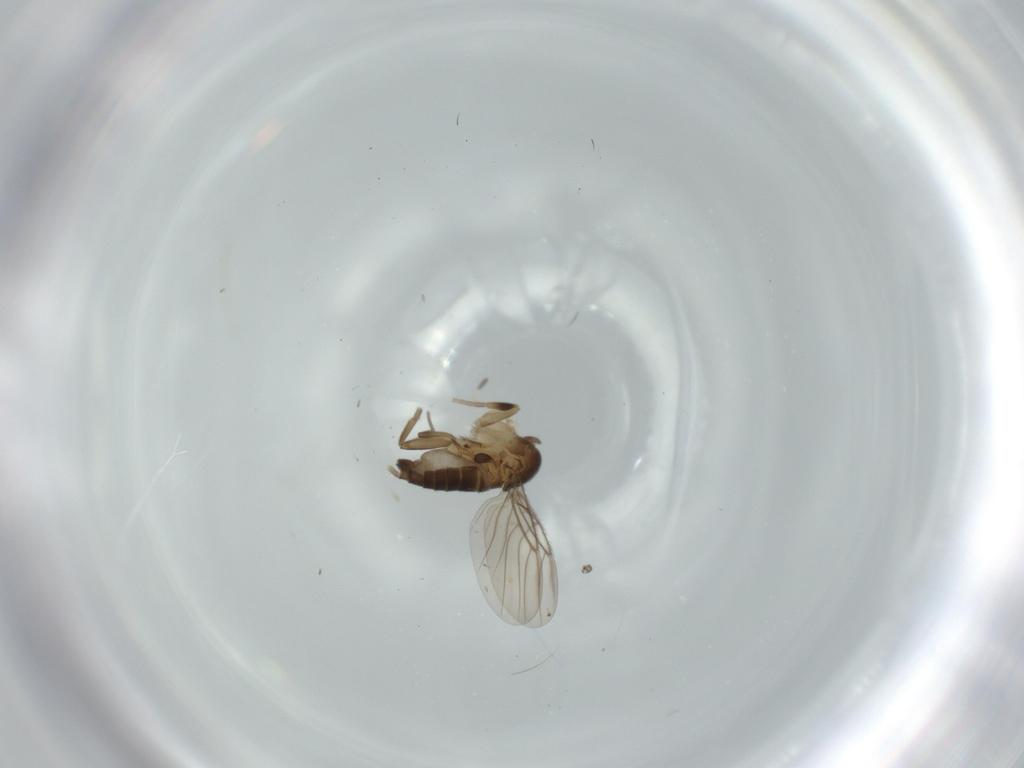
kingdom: Animalia
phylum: Arthropoda
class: Insecta
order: Diptera
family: Phoridae
